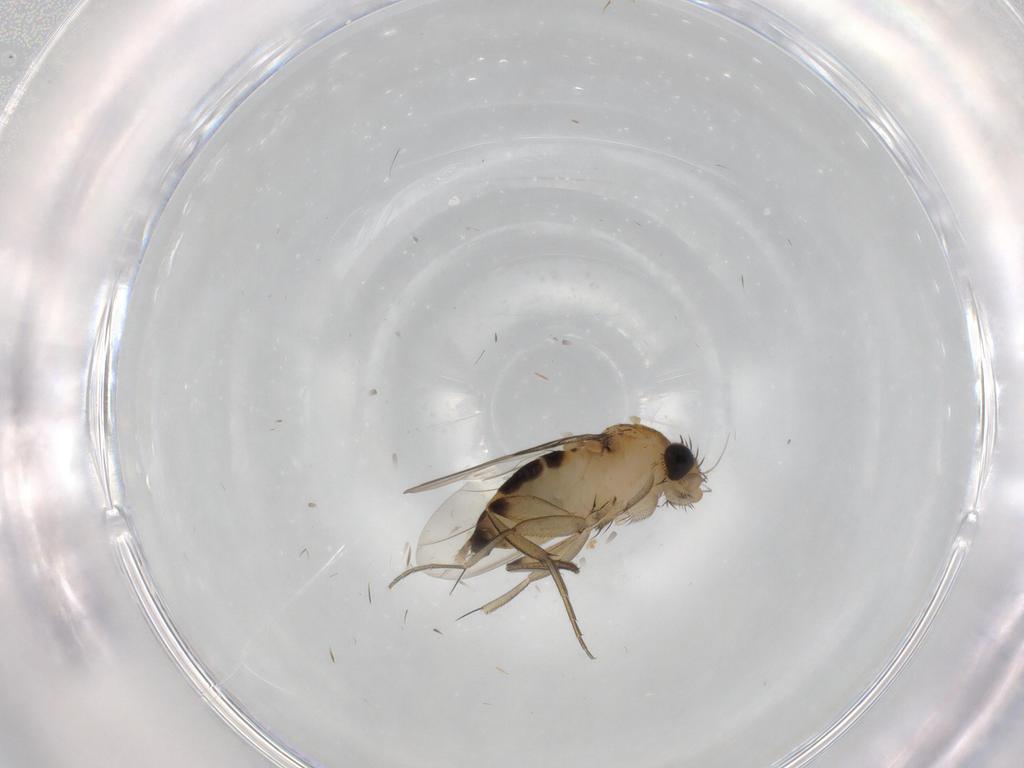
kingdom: Animalia
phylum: Arthropoda
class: Insecta
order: Diptera
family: Phoridae
